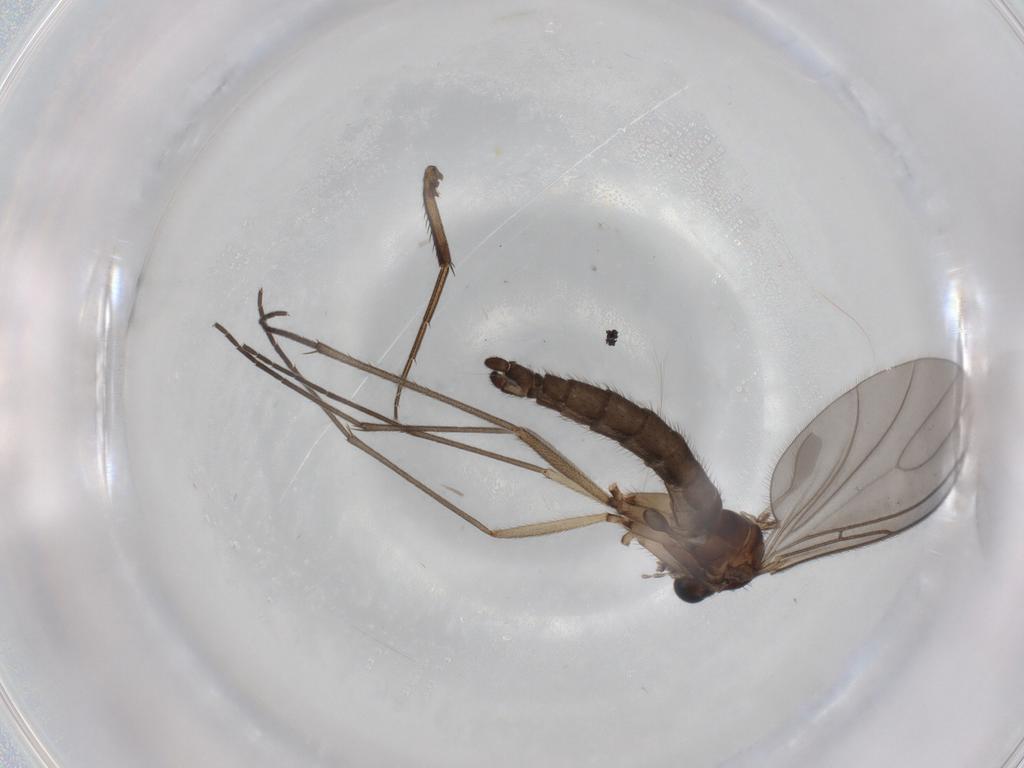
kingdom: Animalia
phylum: Arthropoda
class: Insecta
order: Diptera
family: Sciaridae
